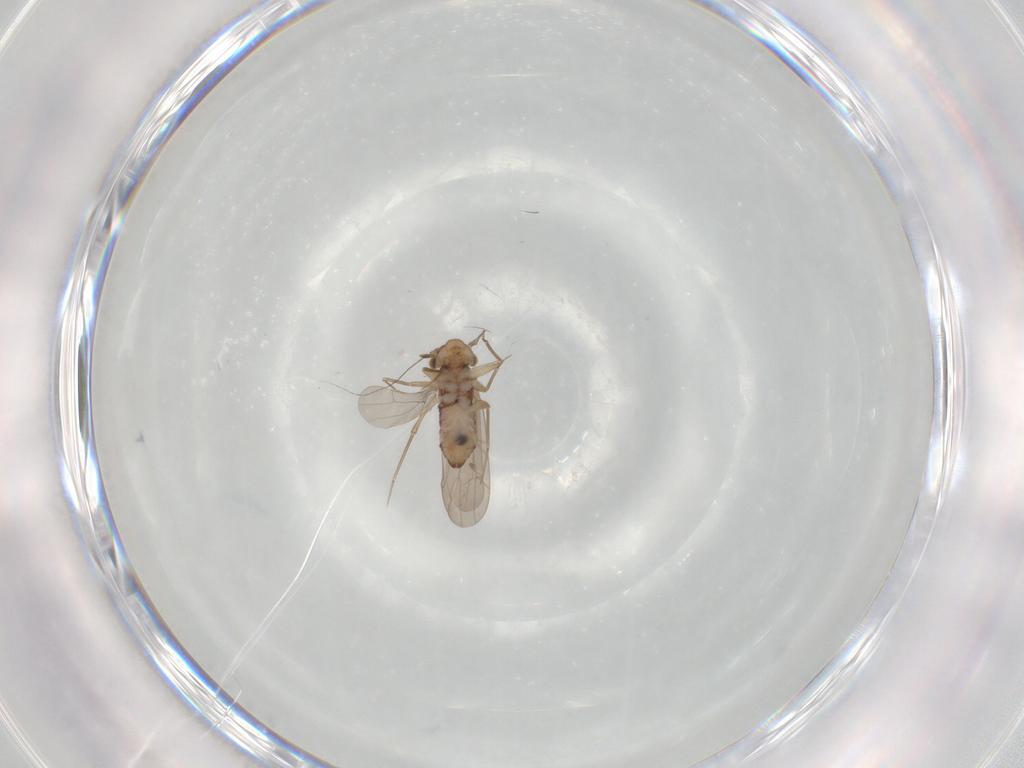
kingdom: Animalia
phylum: Arthropoda
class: Insecta
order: Psocodea
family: Lepidopsocidae
